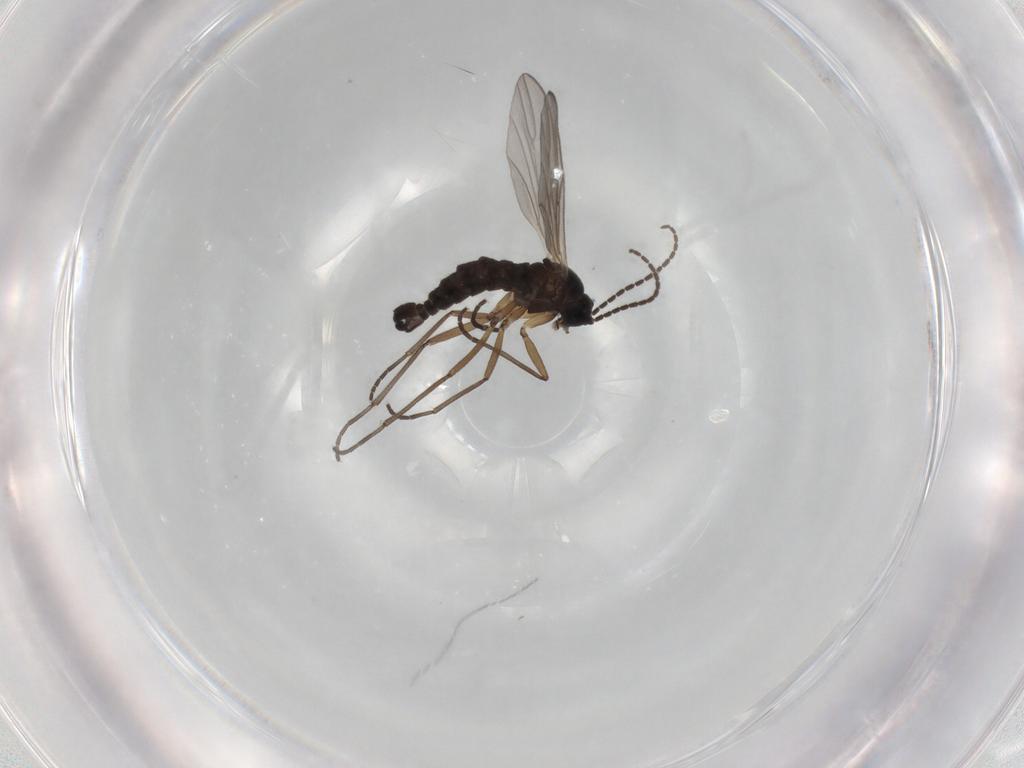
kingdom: Animalia
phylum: Arthropoda
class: Insecta
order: Diptera
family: Sciaridae
